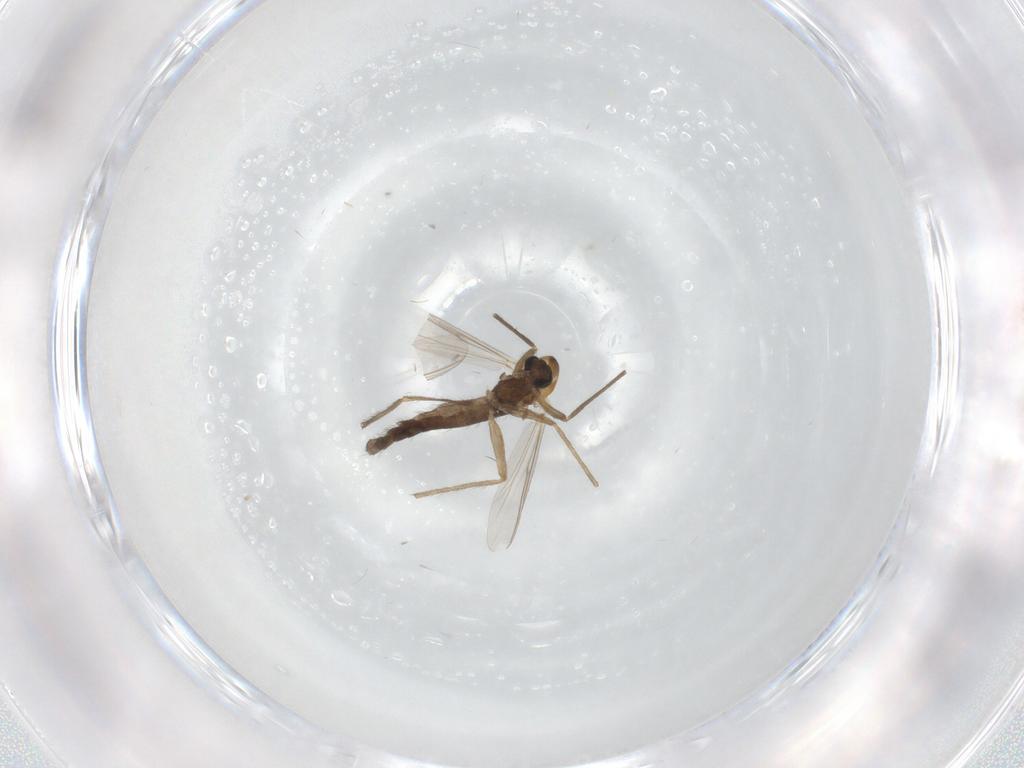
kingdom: Animalia
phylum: Arthropoda
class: Insecta
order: Diptera
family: Chironomidae
